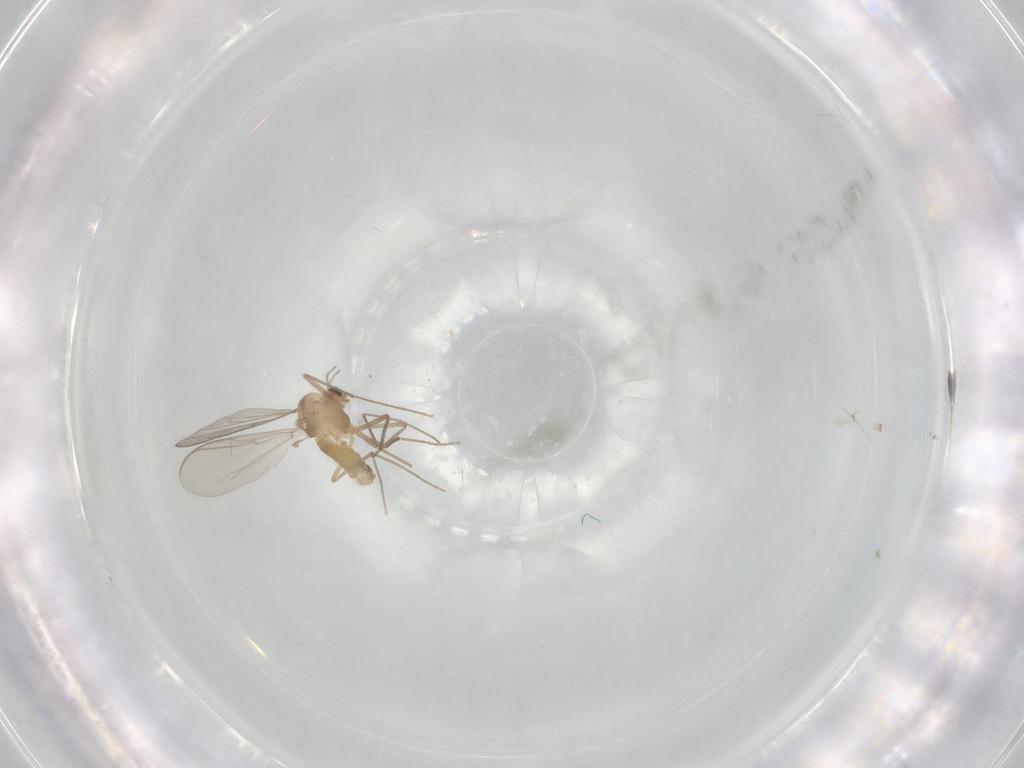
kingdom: Animalia
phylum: Arthropoda
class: Insecta
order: Diptera
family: Chironomidae
